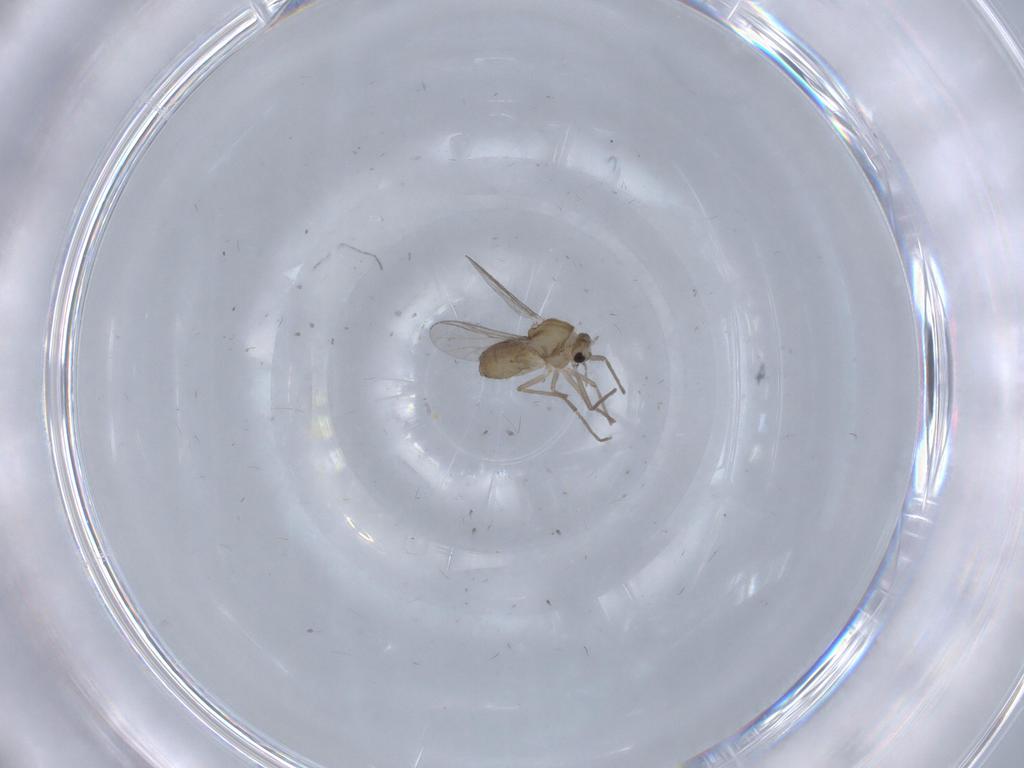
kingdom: Animalia
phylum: Arthropoda
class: Insecta
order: Diptera
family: Chironomidae
